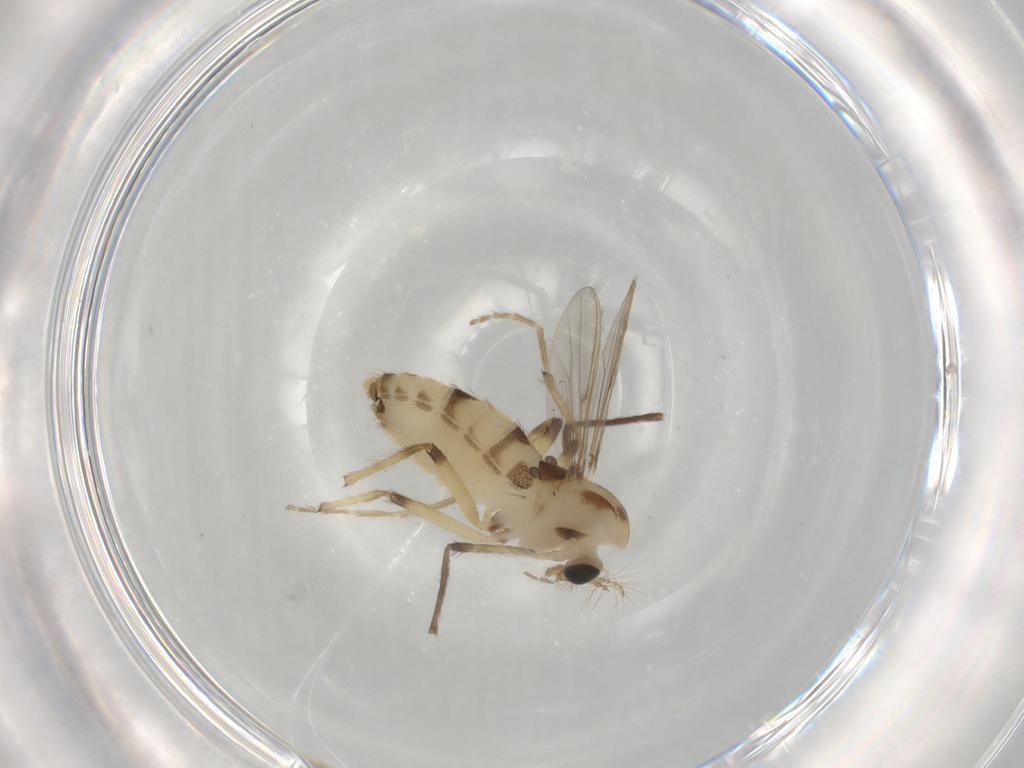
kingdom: Animalia
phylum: Arthropoda
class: Insecta
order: Diptera
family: Chironomidae
